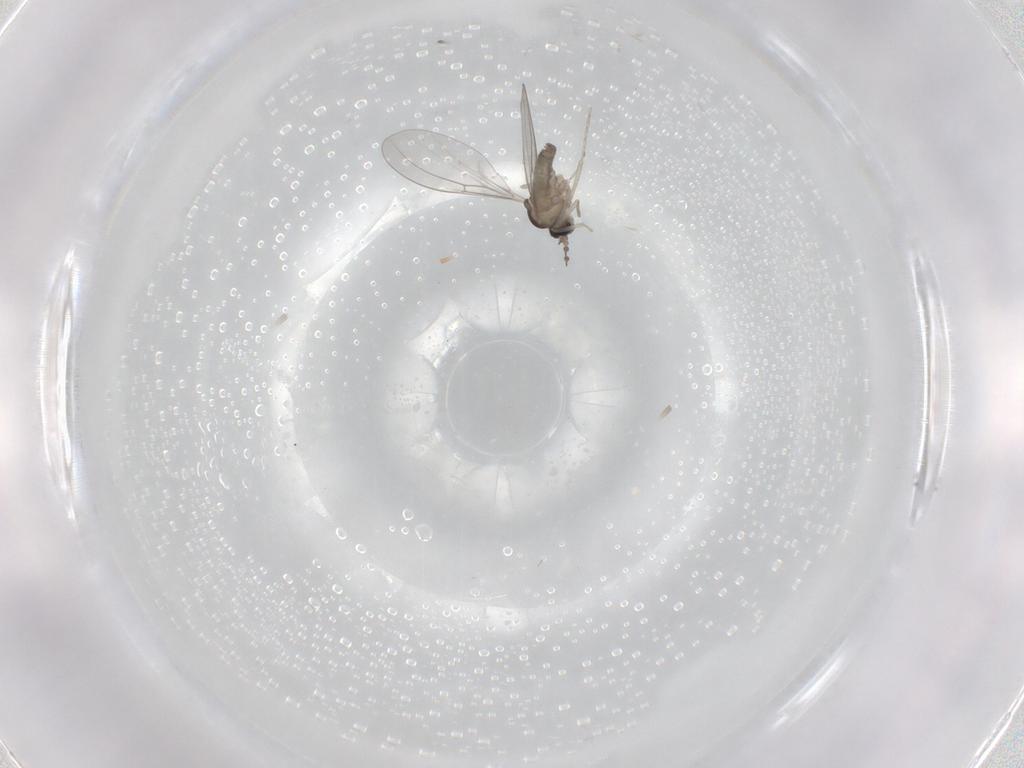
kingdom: Animalia
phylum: Arthropoda
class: Insecta
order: Diptera
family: Cecidomyiidae
